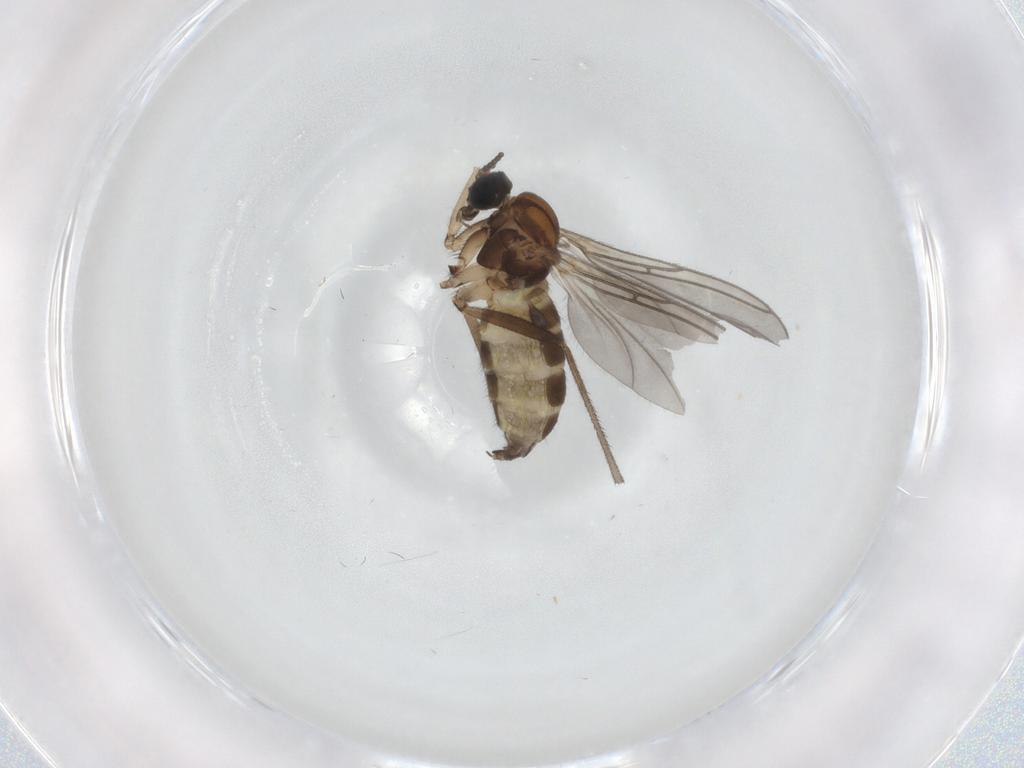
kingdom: Animalia
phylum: Arthropoda
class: Insecta
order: Diptera
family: Sciaridae
